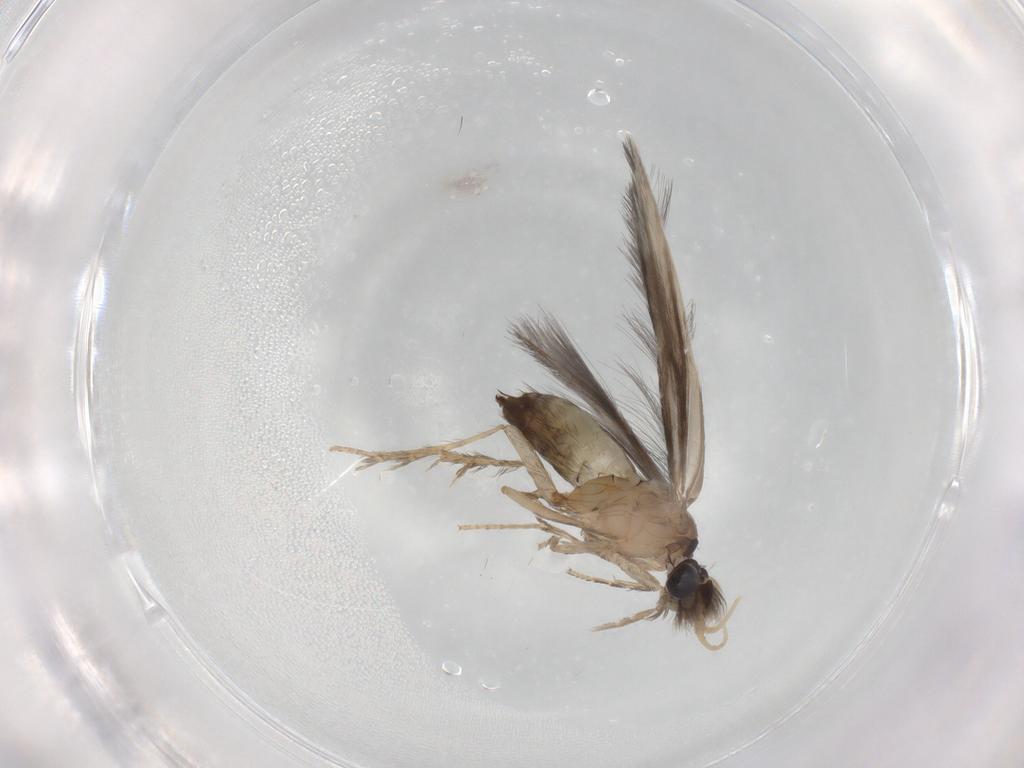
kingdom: Animalia
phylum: Arthropoda
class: Insecta
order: Trichoptera
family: Hydroptilidae
